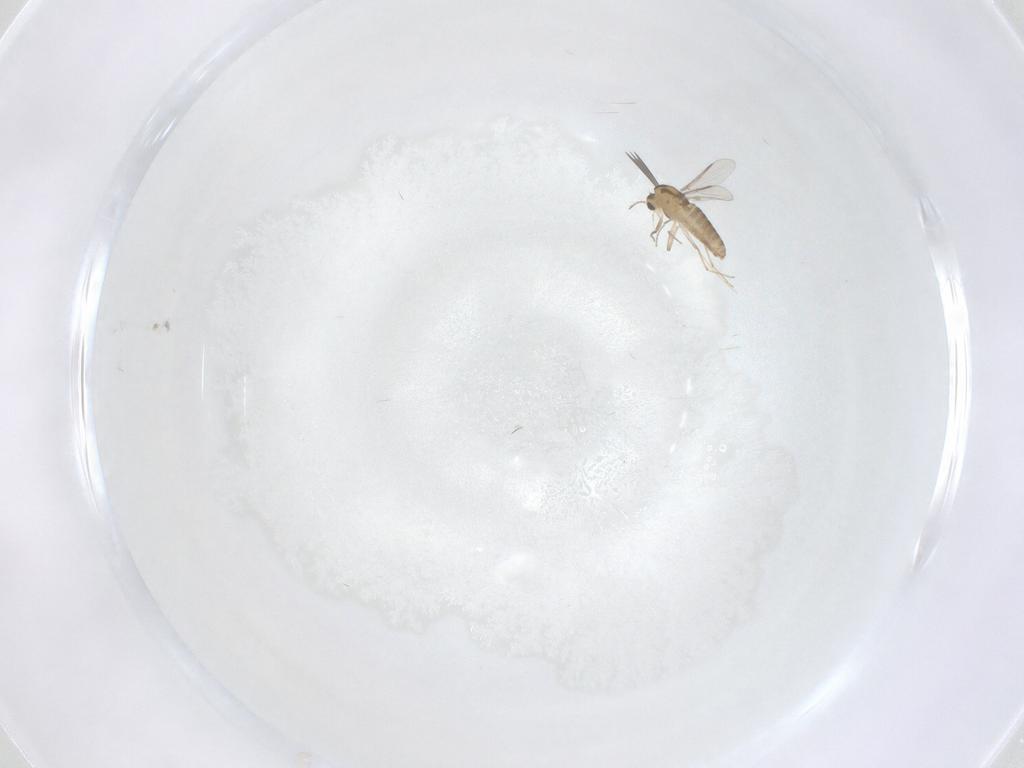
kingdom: Animalia
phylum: Arthropoda
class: Insecta
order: Diptera
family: Chironomidae
